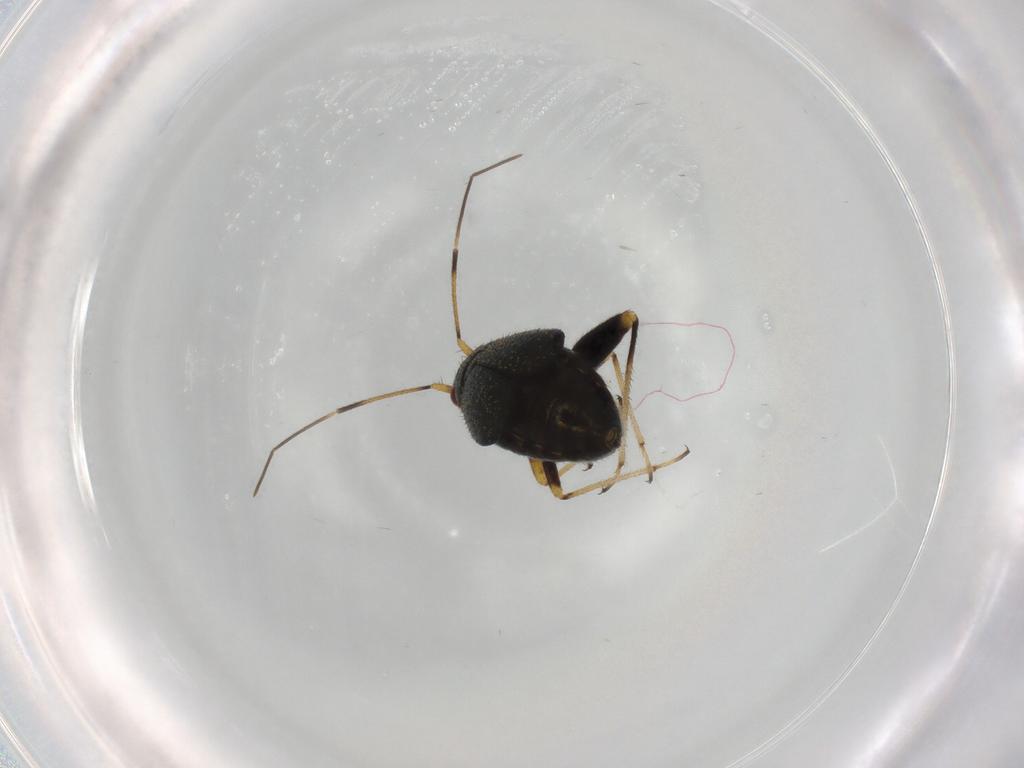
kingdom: Animalia
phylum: Arthropoda
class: Insecta
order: Hemiptera
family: Miridae
